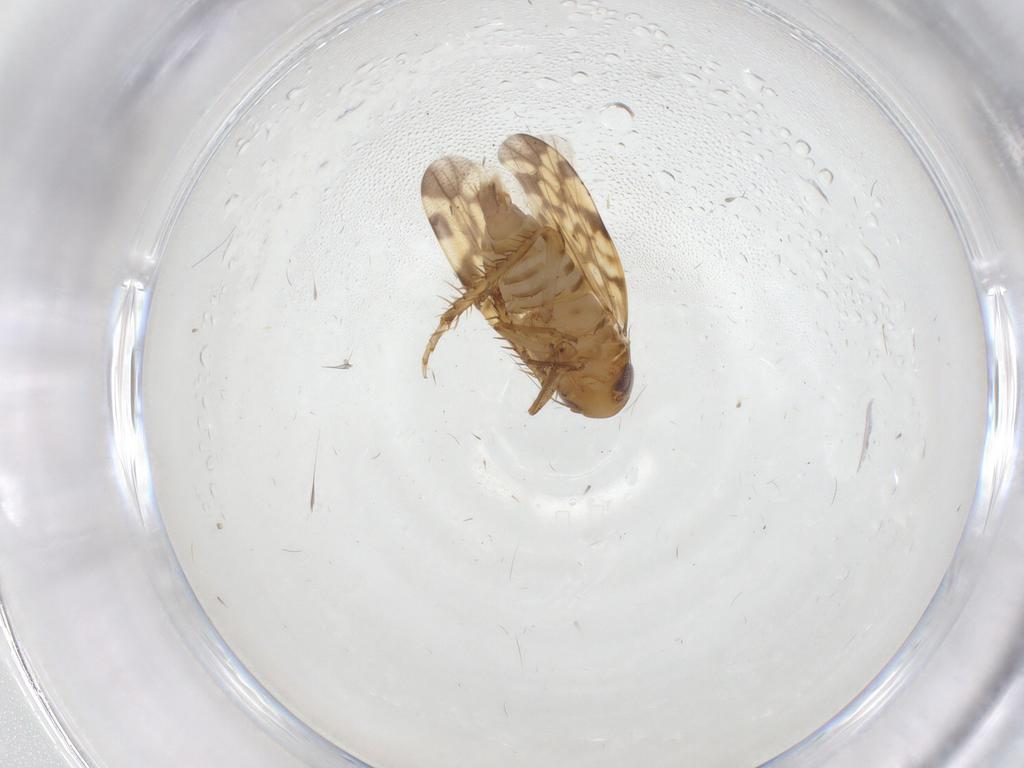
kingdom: Animalia
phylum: Arthropoda
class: Insecta
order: Hemiptera
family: Cicadellidae
